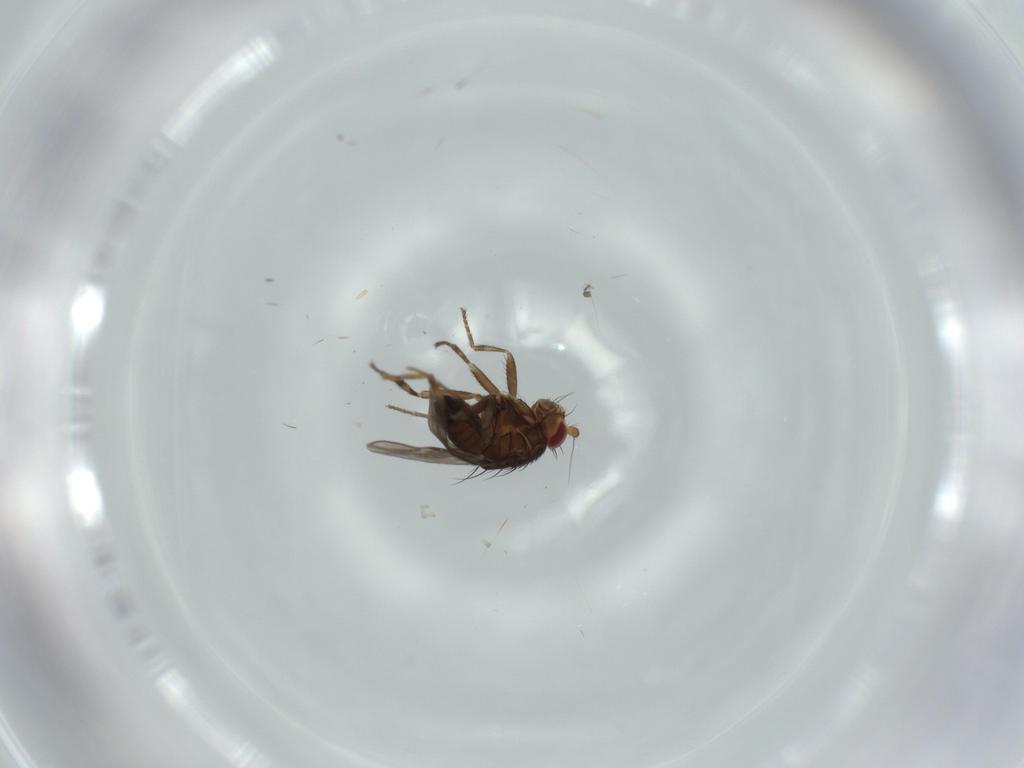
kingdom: Animalia
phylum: Arthropoda
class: Insecta
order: Diptera
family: Sphaeroceridae
